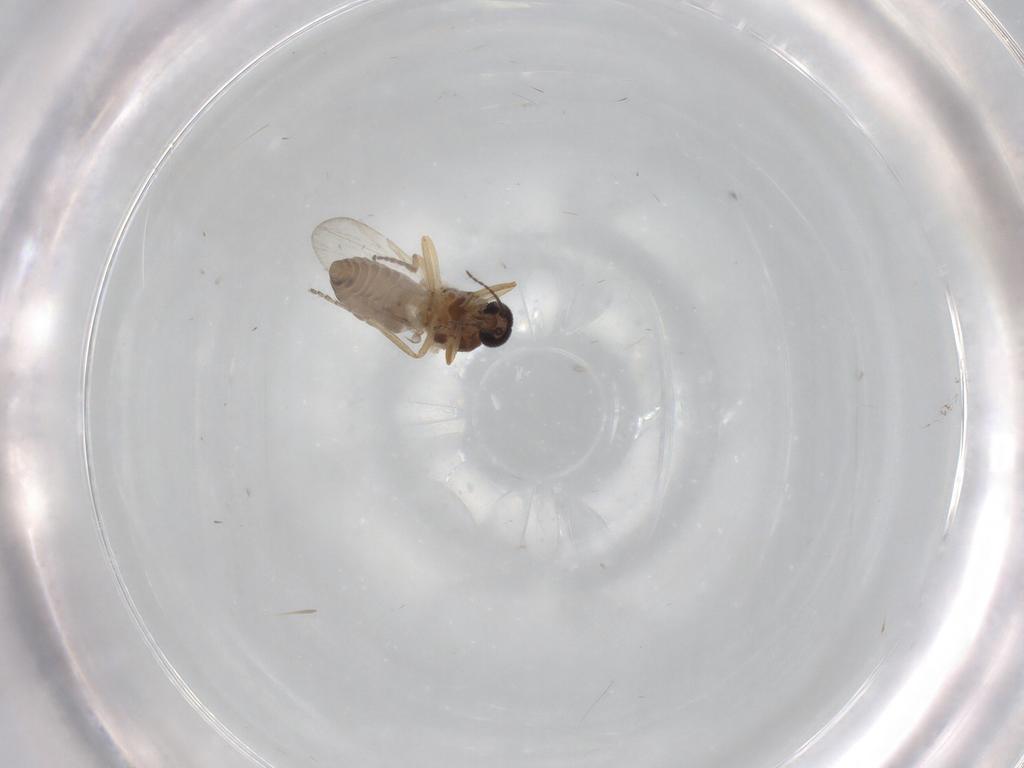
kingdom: Animalia
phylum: Arthropoda
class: Insecta
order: Diptera
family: Ceratopogonidae
